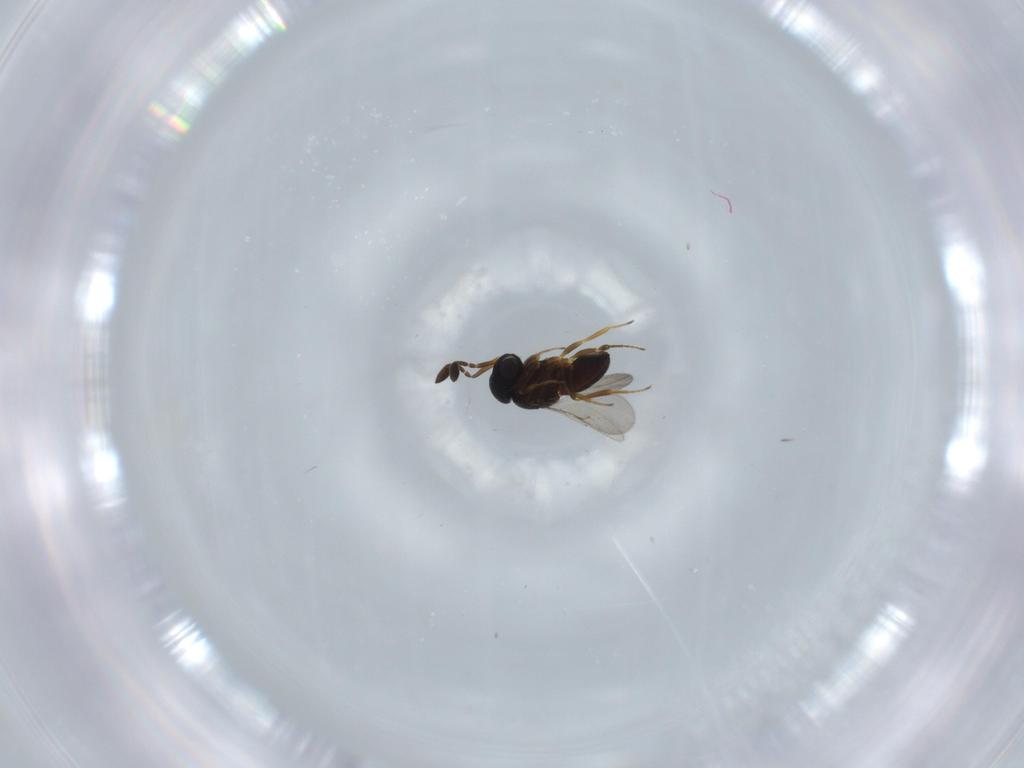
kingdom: Animalia
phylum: Arthropoda
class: Insecta
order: Coleoptera
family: Curculionidae
